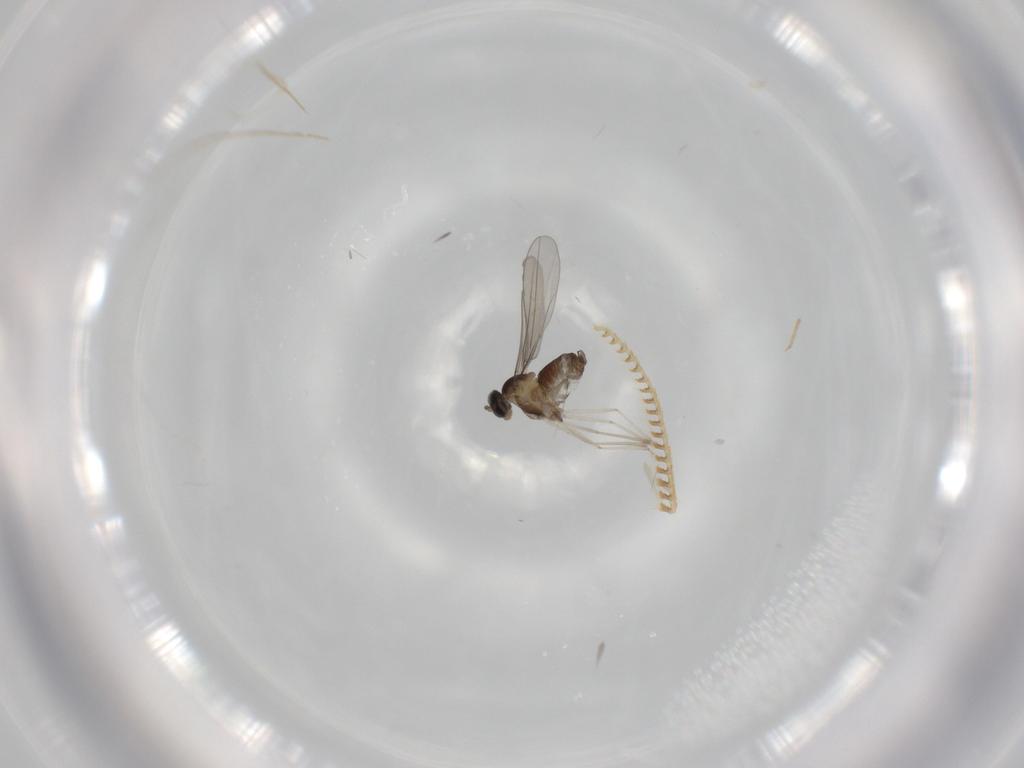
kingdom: Animalia
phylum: Arthropoda
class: Insecta
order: Diptera
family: Cecidomyiidae
